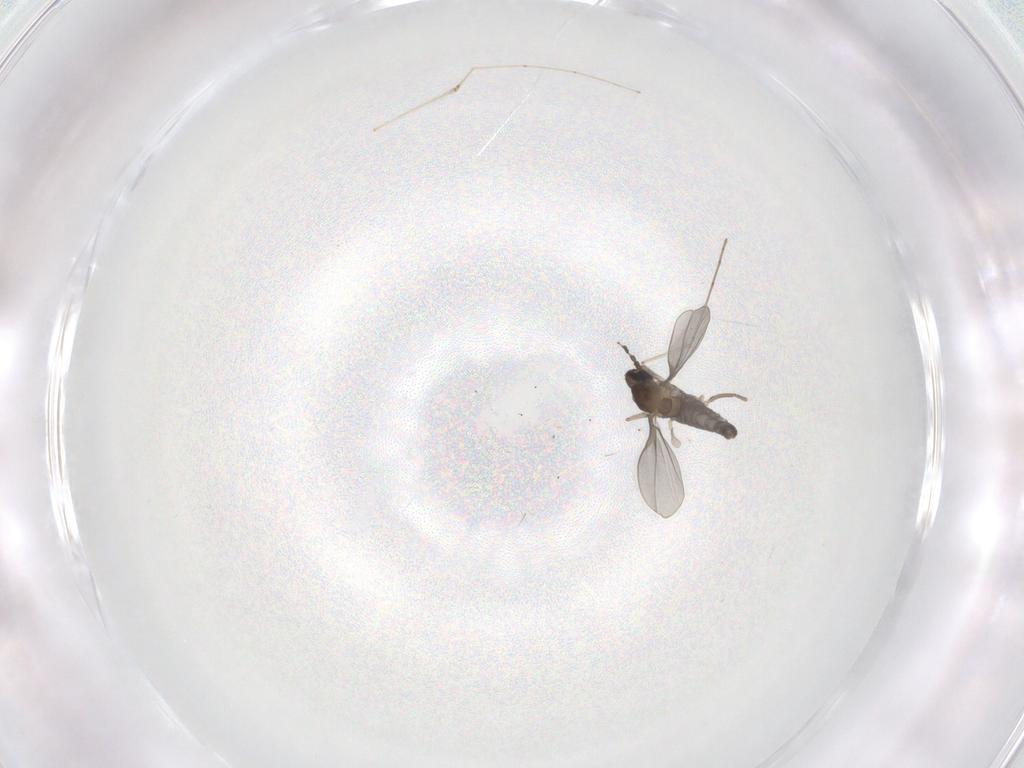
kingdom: Animalia
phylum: Arthropoda
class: Insecta
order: Diptera
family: Cecidomyiidae
